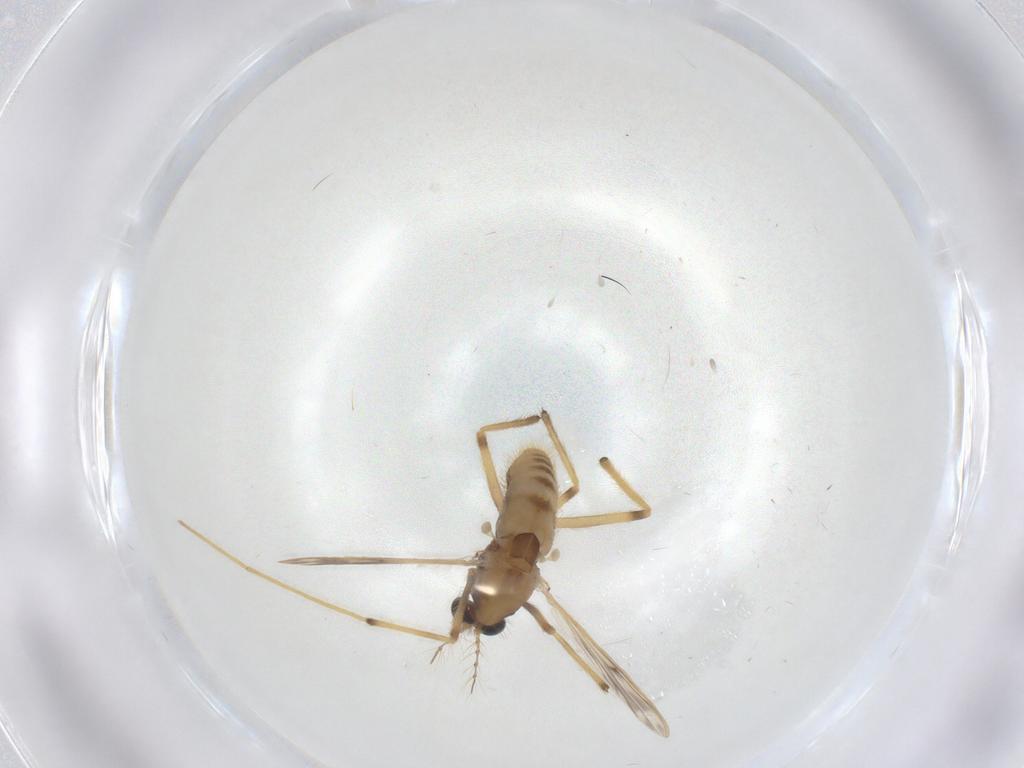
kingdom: Animalia
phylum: Arthropoda
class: Insecta
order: Diptera
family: Chironomidae
